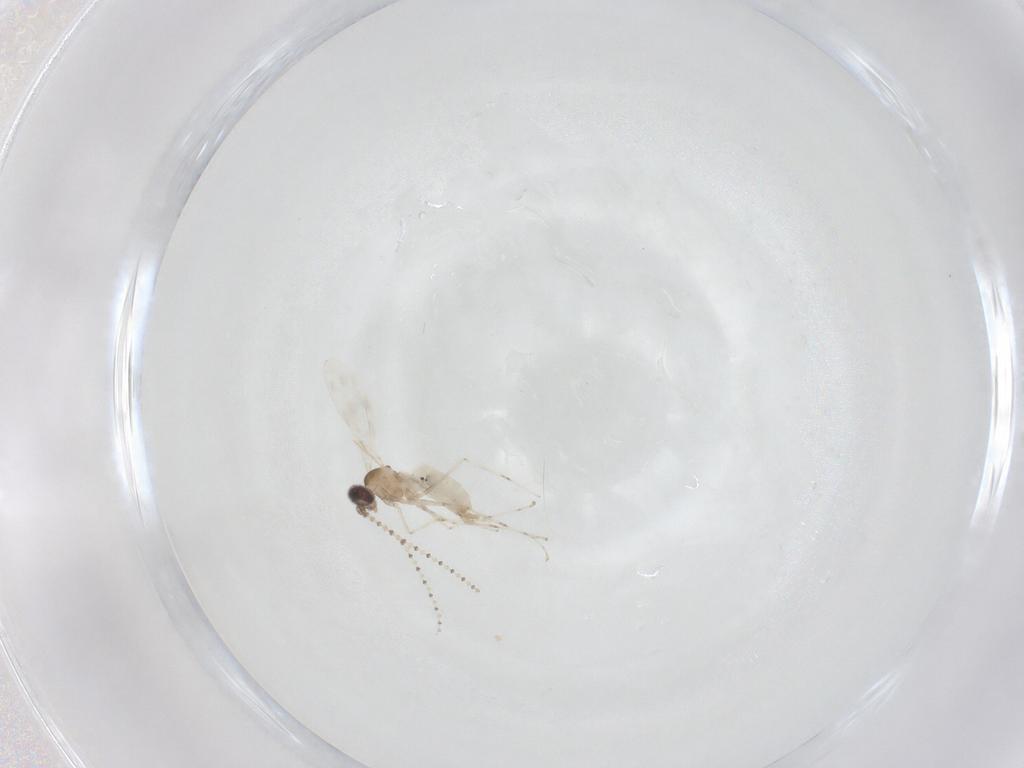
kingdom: Animalia
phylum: Arthropoda
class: Insecta
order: Diptera
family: Cecidomyiidae
